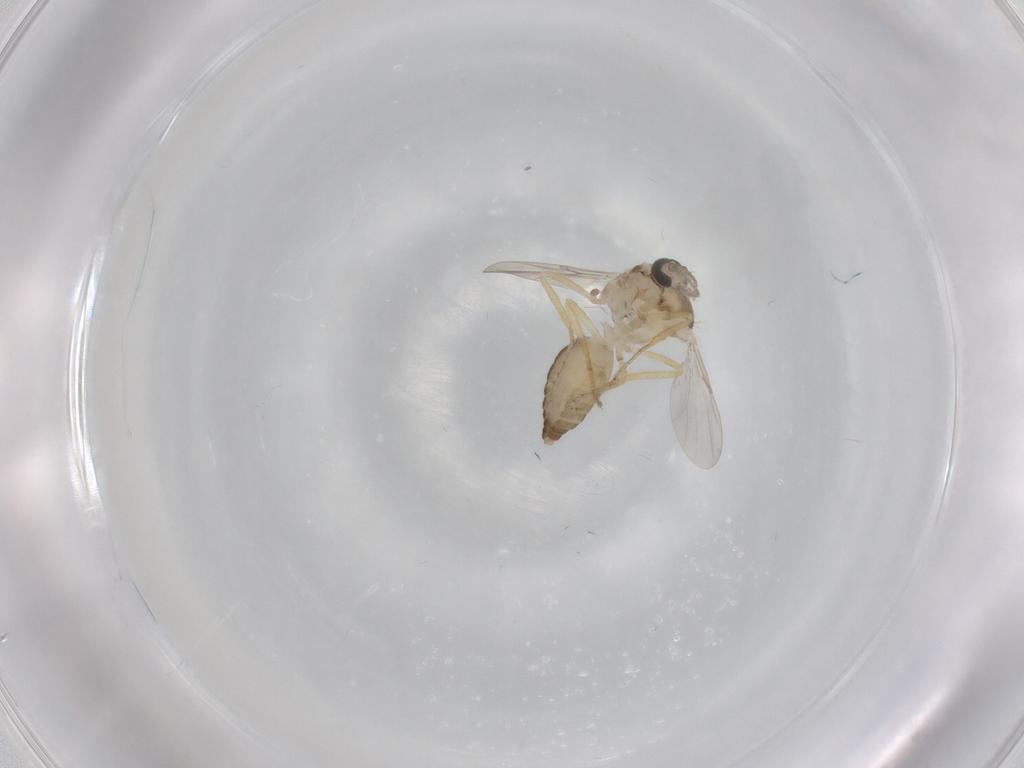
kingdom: Animalia
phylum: Arthropoda
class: Insecta
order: Diptera
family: Ceratopogonidae
